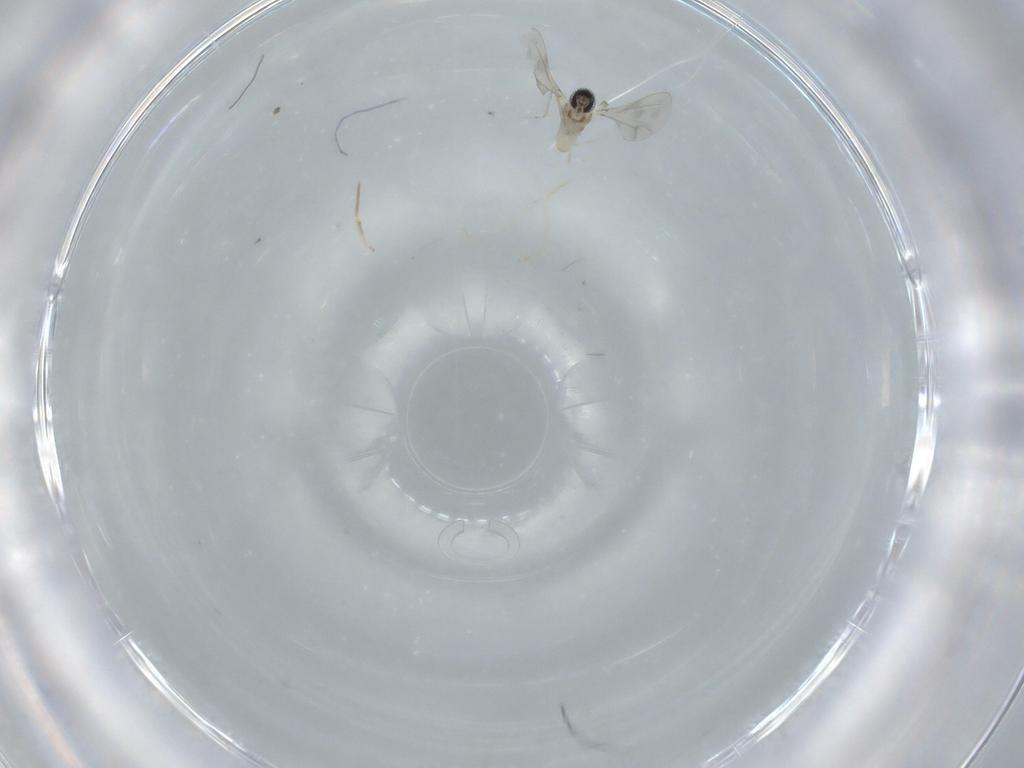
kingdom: Animalia
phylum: Arthropoda
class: Insecta
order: Diptera
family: Cecidomyiidae
